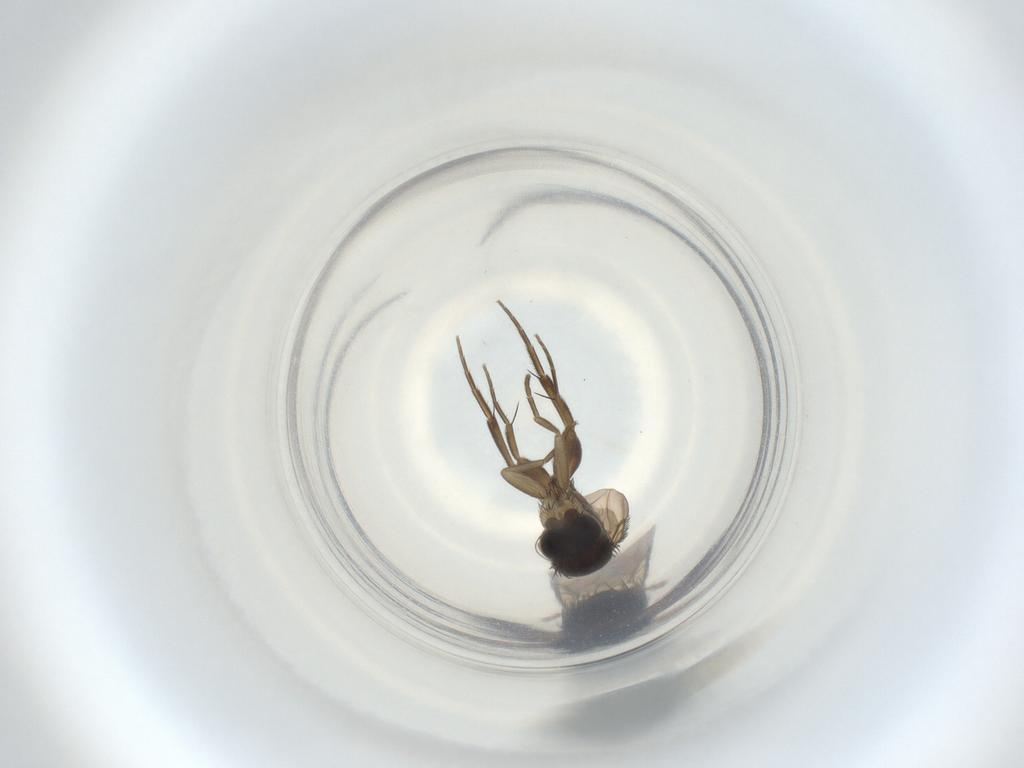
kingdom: Animalia
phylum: Arthropoda
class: Insecta
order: Diptera
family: Phoridae
